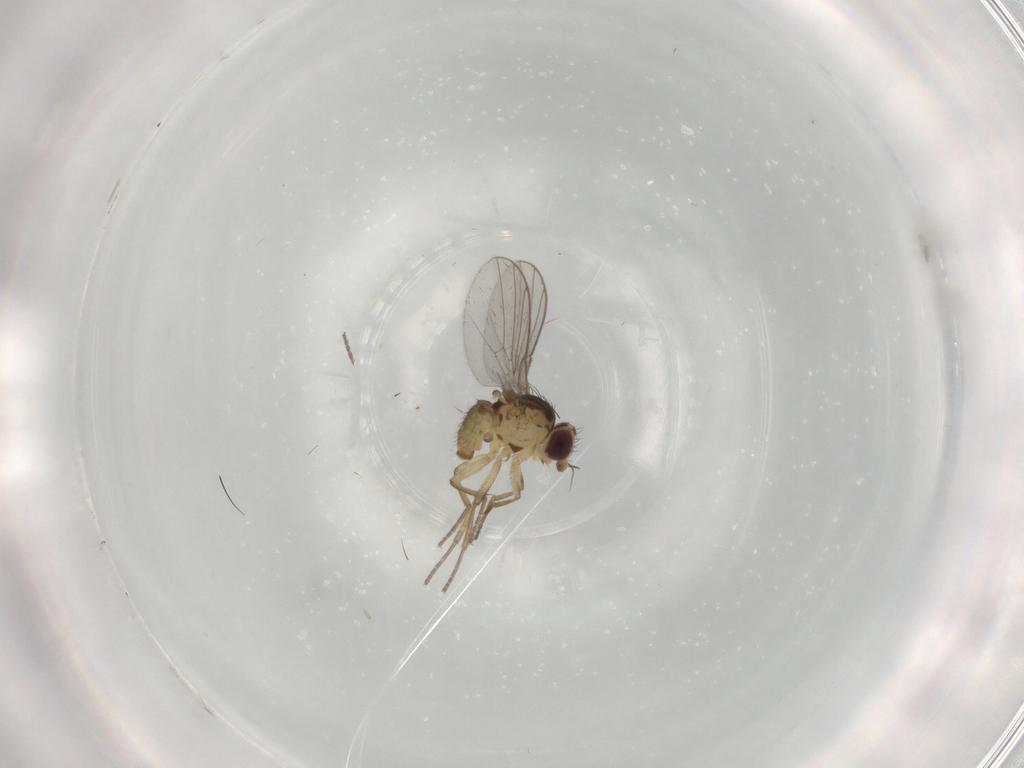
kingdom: Animalia
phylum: Arthropoda
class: Insecta
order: Diptera
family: Agromyzidae
